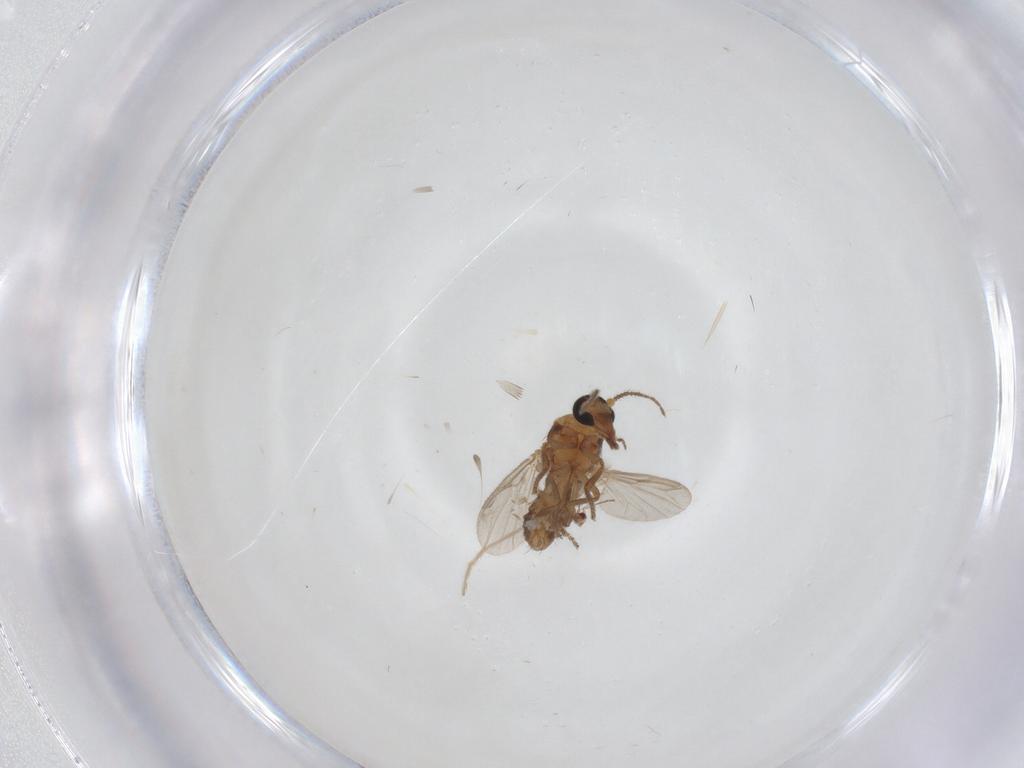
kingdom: Animalia
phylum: Arthropoda
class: Insecta
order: Diptera
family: Ceratopogonidae
